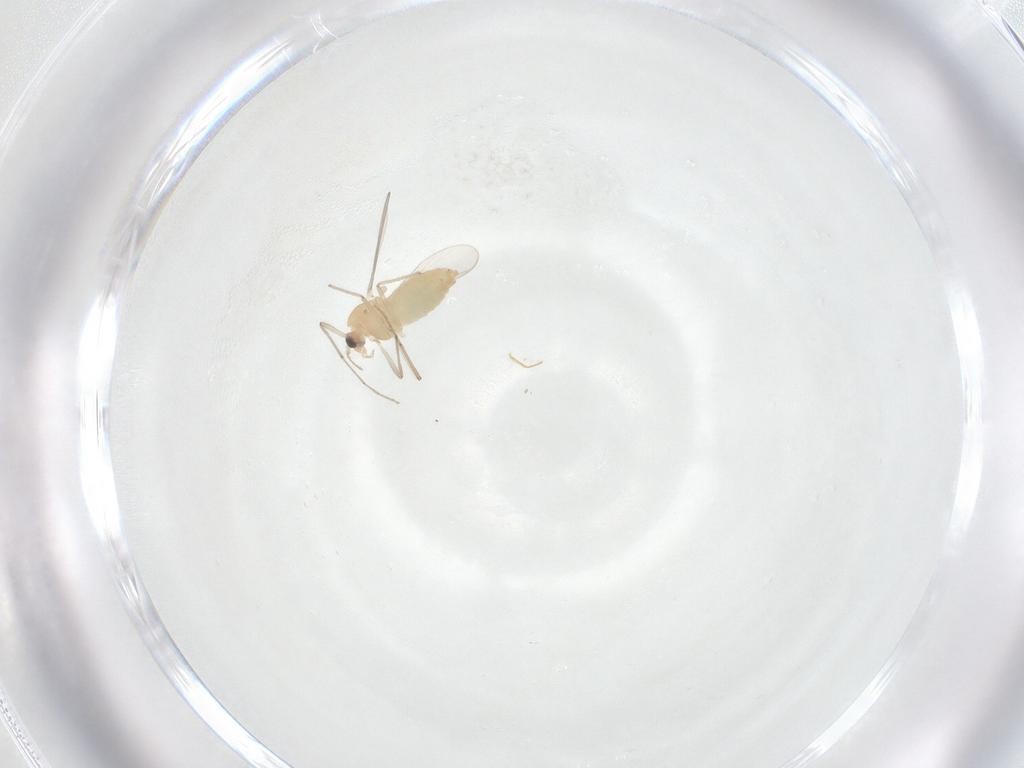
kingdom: Animalia
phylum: Arthropoda
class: Insecta
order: Diptera
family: Chironomidae
